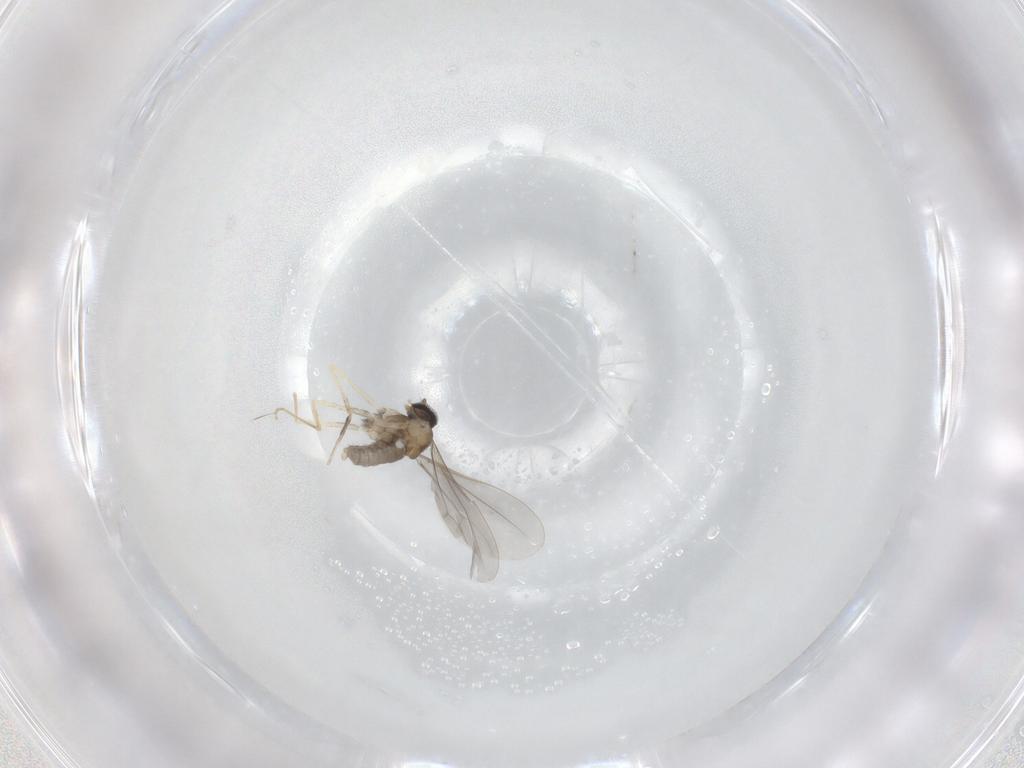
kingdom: Animalia
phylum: Arthropoda
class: Insecta
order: Diptera
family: Cecidomyiidae
